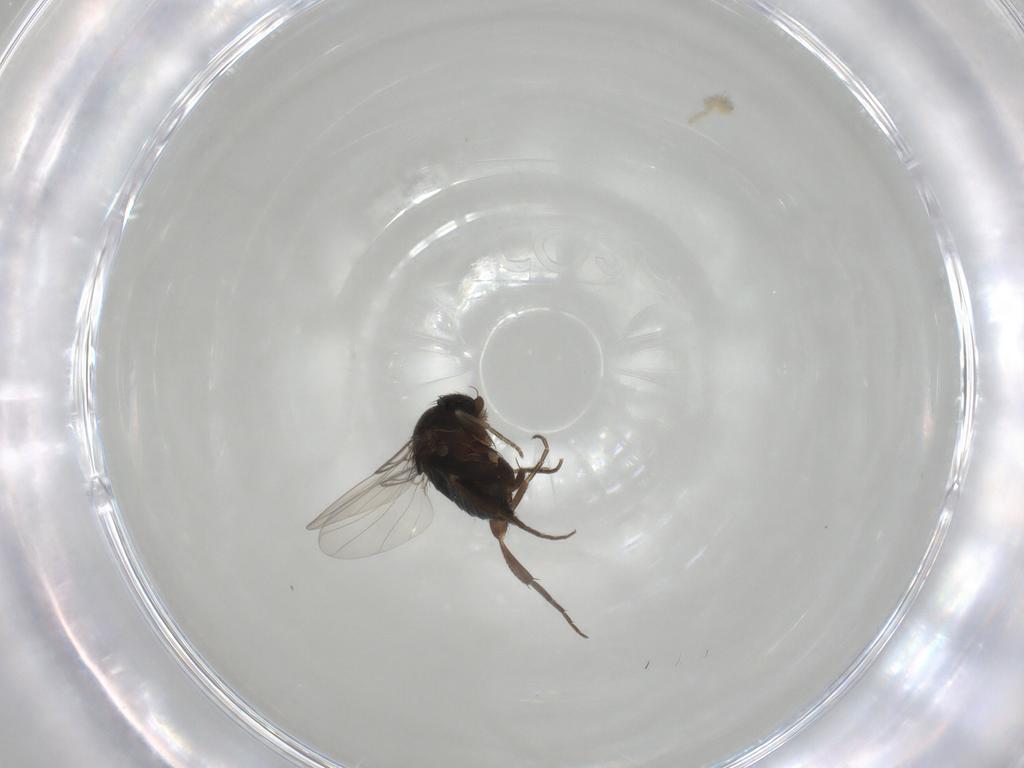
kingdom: Animalia
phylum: Arthropoda
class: Insecta
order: Diptera
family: Phoridae
